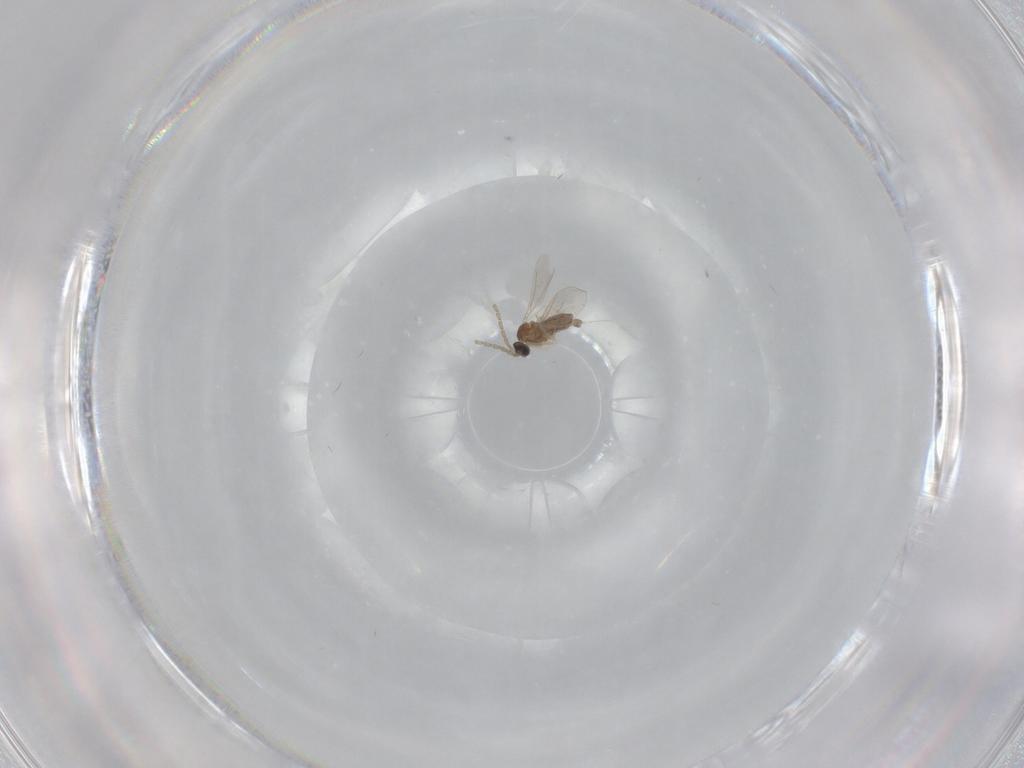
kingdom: Animalia
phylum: Arthropoda
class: Insecta
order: Diptera
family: Cecidomyiidae
